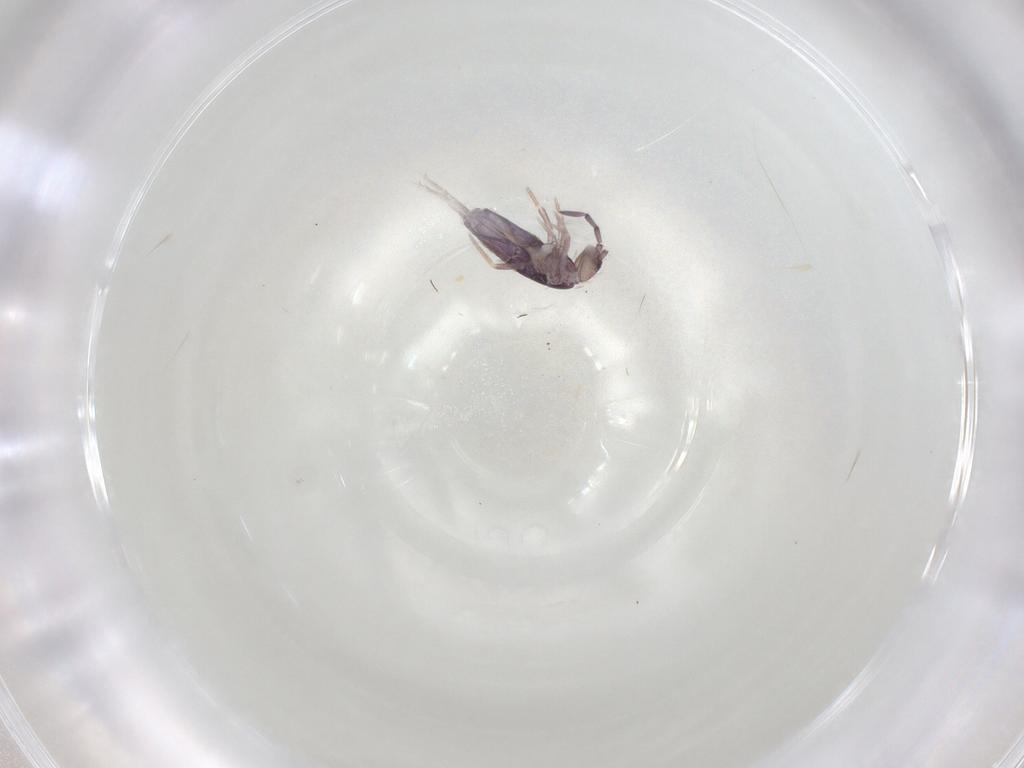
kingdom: Animalia
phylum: Arthropoda
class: Collembola
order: Entomobryomorpha
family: Entomobryidae
